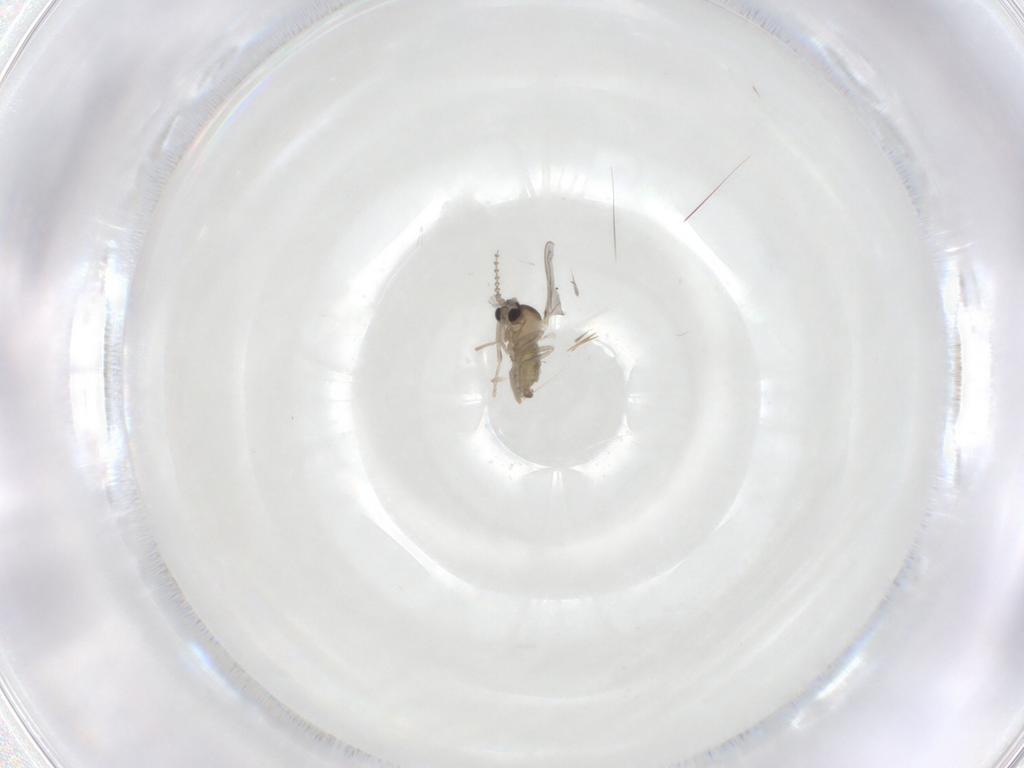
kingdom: Animalia
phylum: Arthropoda
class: Insecta
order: Diptera
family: Cecidomyiidae
